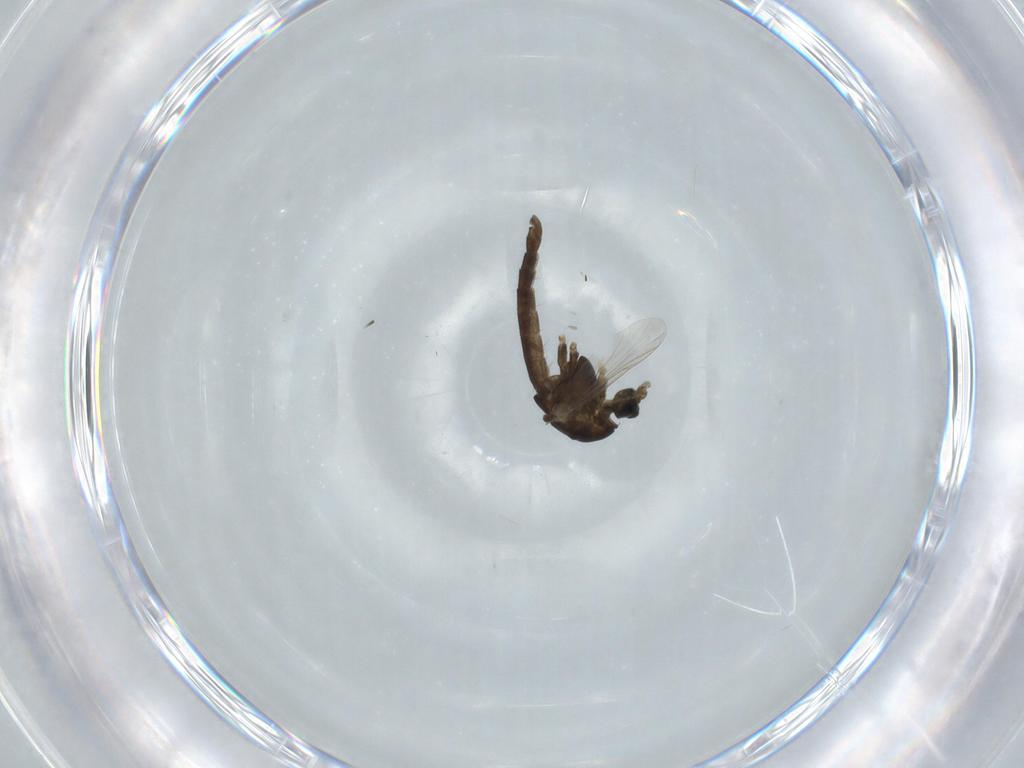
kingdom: Animalia
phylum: Arthropoda
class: Insecta
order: Diptera
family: Chironomidae
